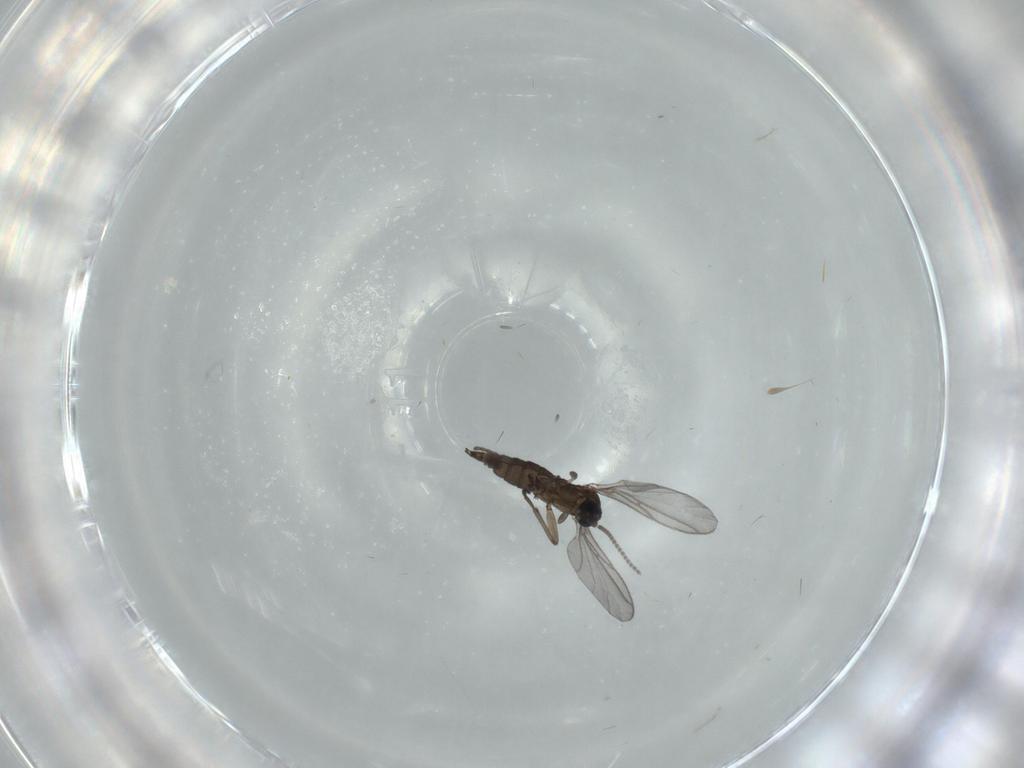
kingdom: Animalia
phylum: Arthropoda
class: Insecta
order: Diptera
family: Cecidomyiidae
